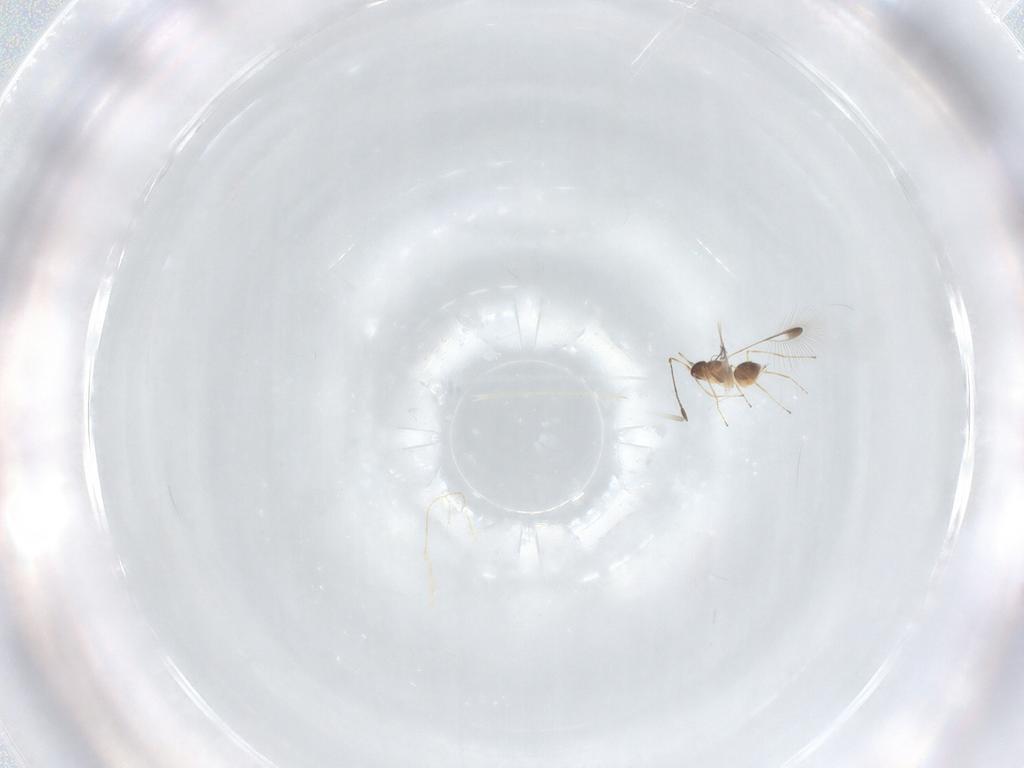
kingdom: Animalia
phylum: Arthropoda
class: Insecta
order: Hymenoptera
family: Mymaridae
